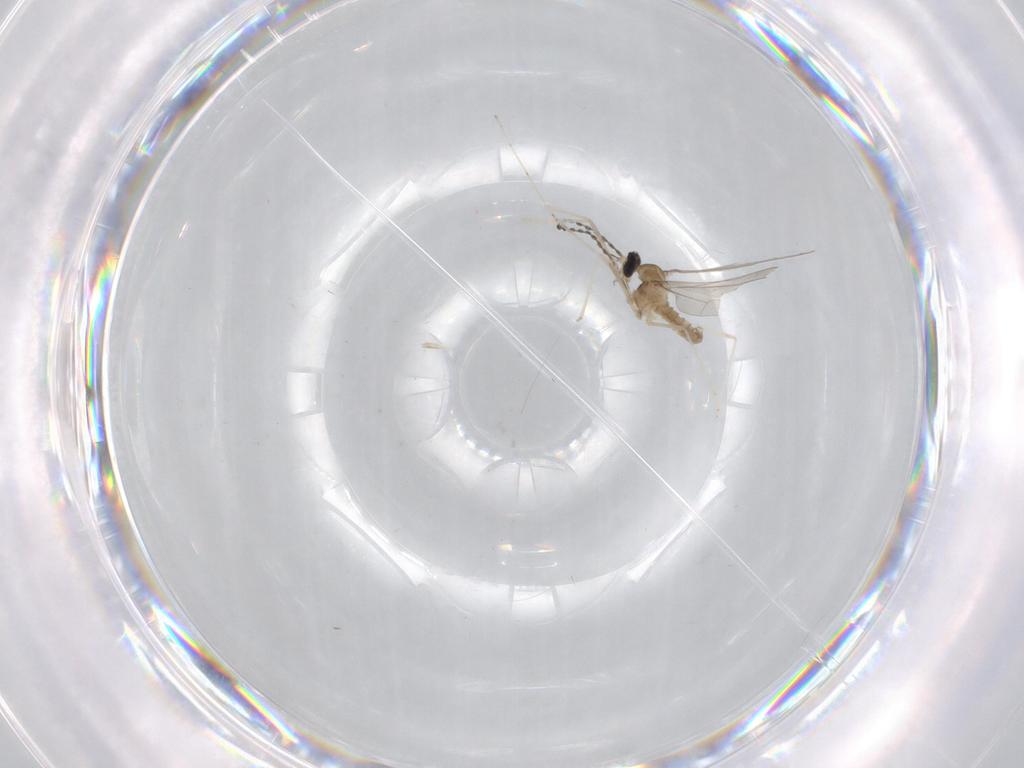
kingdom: Animalia
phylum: Arthropoda
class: Insecta
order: Diptera
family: Cecidomyiidae
